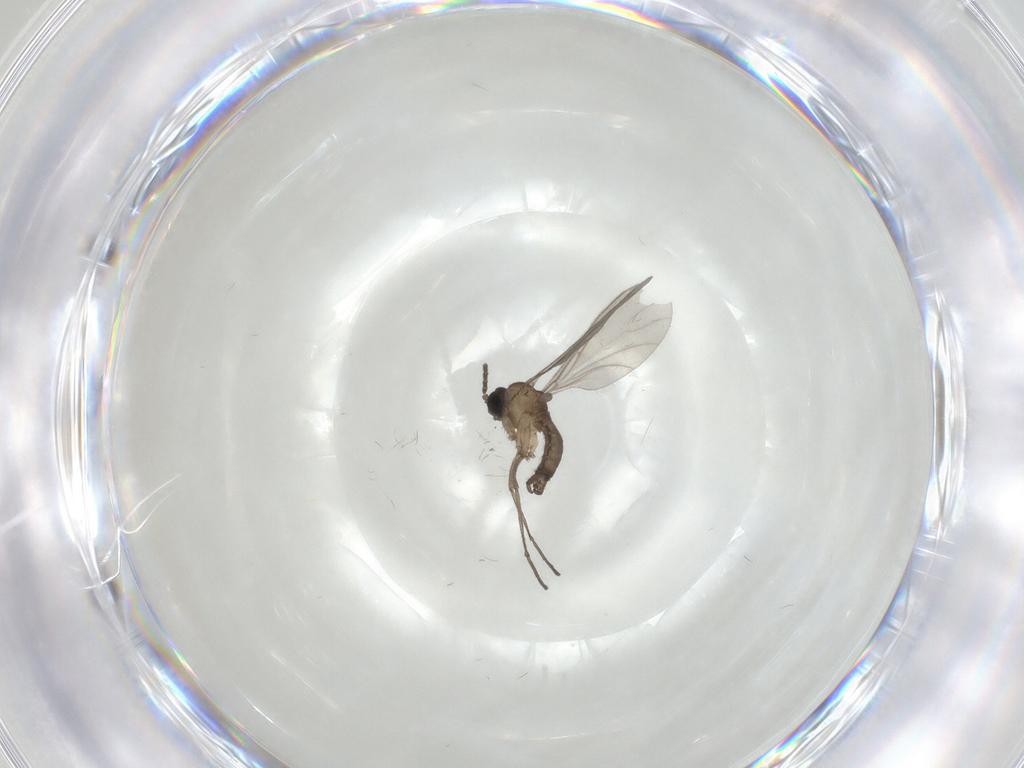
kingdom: Animalia
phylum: Arthropoda
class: Insecta
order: Diptera
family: Sciaridae
